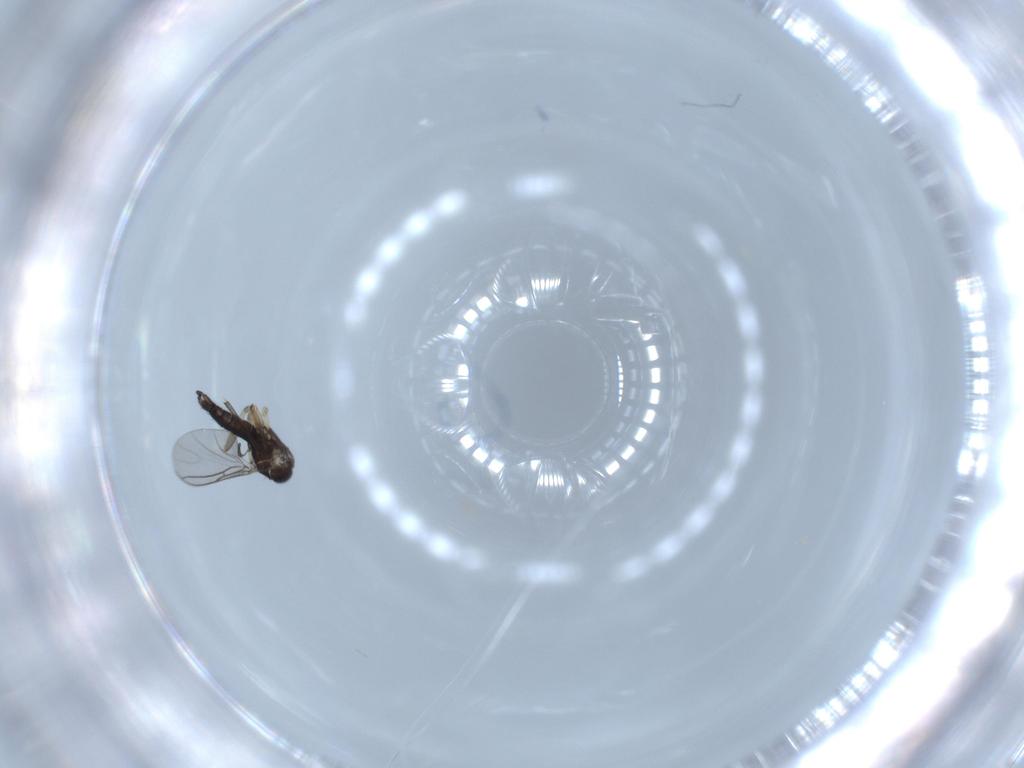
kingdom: Animalia
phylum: Arthropoda
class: Insecta
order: Diptera
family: Sciaridae
